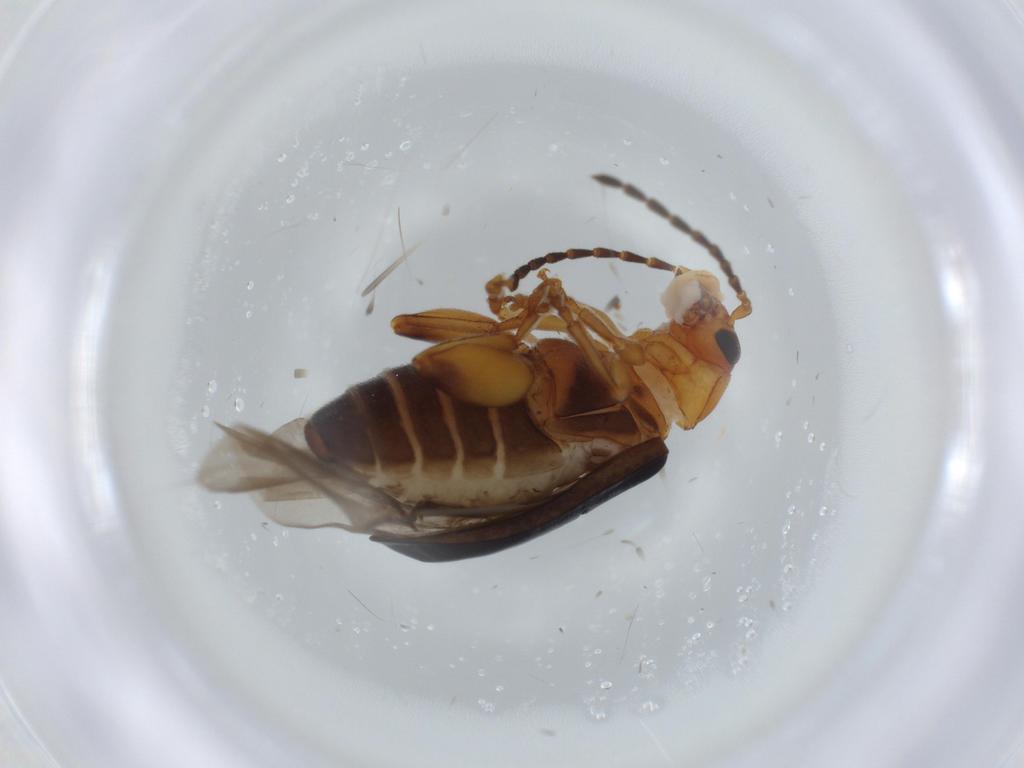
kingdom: Animalia
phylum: Arthropoda
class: Insecta
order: Coleoptera
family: Chrysomelidae
